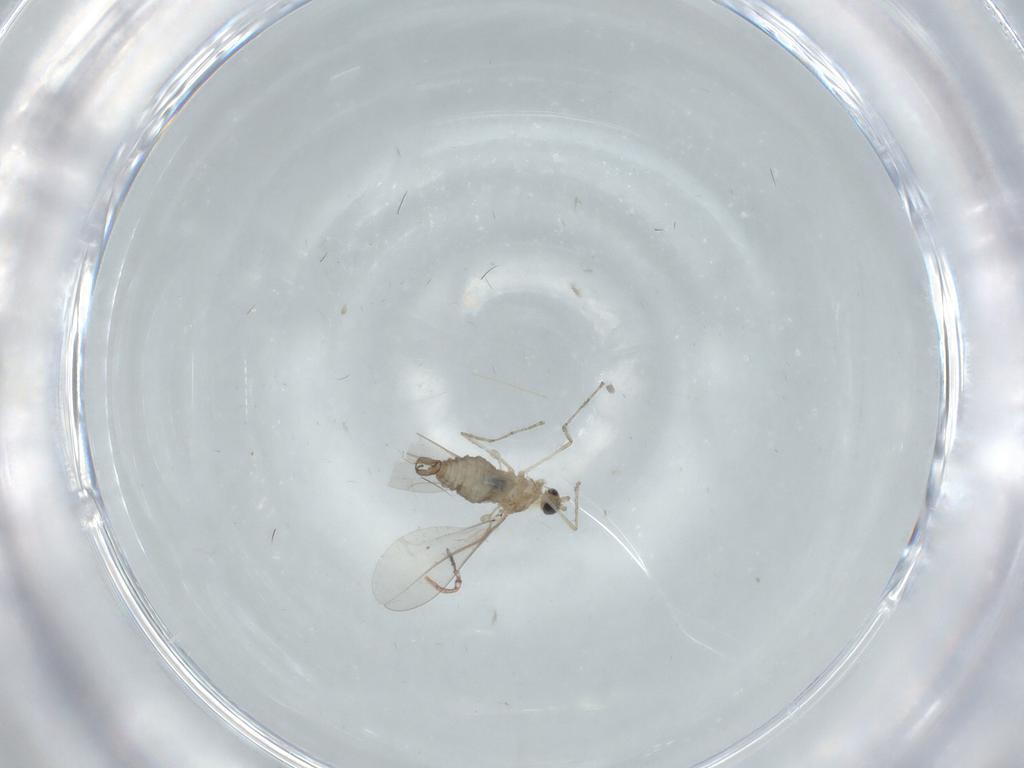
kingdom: Animalia
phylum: Arthropoda
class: Insecta
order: Diptera
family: Cecidomyiidae
